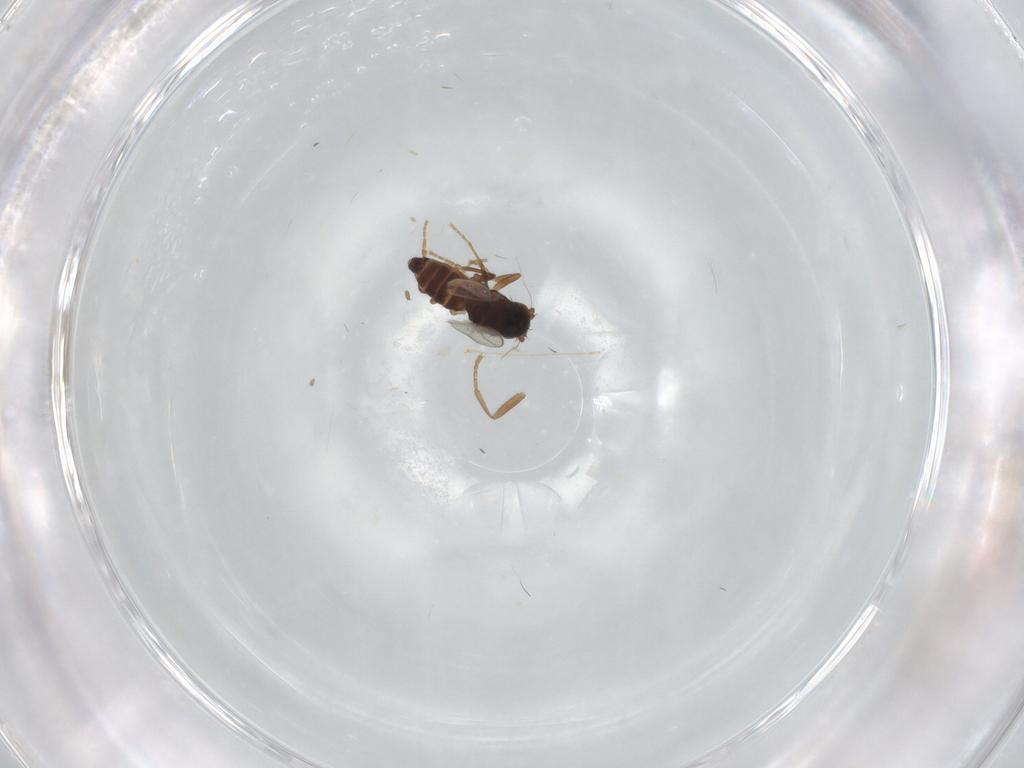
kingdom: Animalia
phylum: Arthropoda
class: Insecta
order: Diptera
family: Sphaeroceridae
